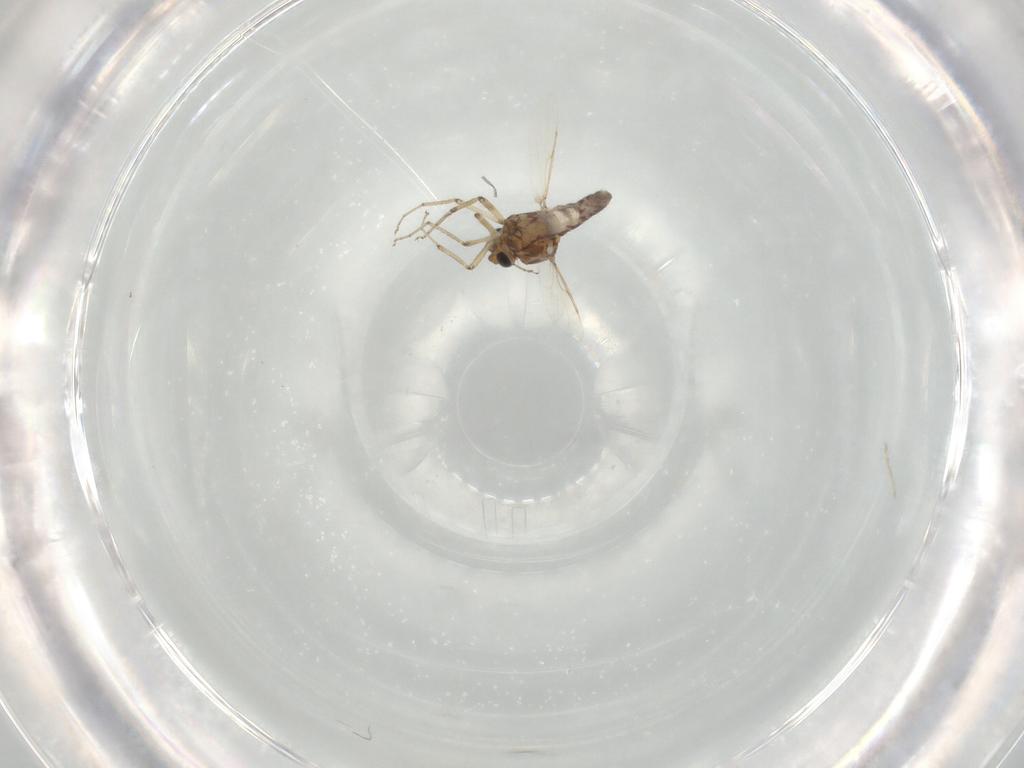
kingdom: Animalia
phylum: Arthropoda
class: Insecta
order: Diptera
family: Ceratopogonidae
